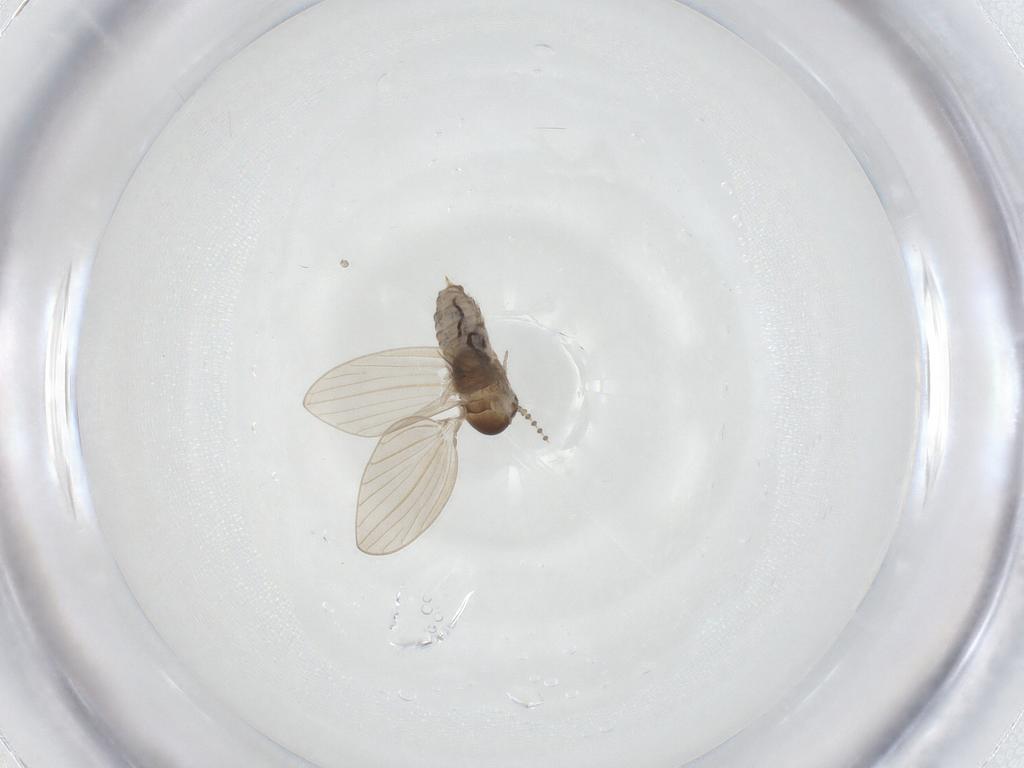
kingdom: Animalia
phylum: Arthropoda
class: Insecta
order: Diptera
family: Psychodidae
